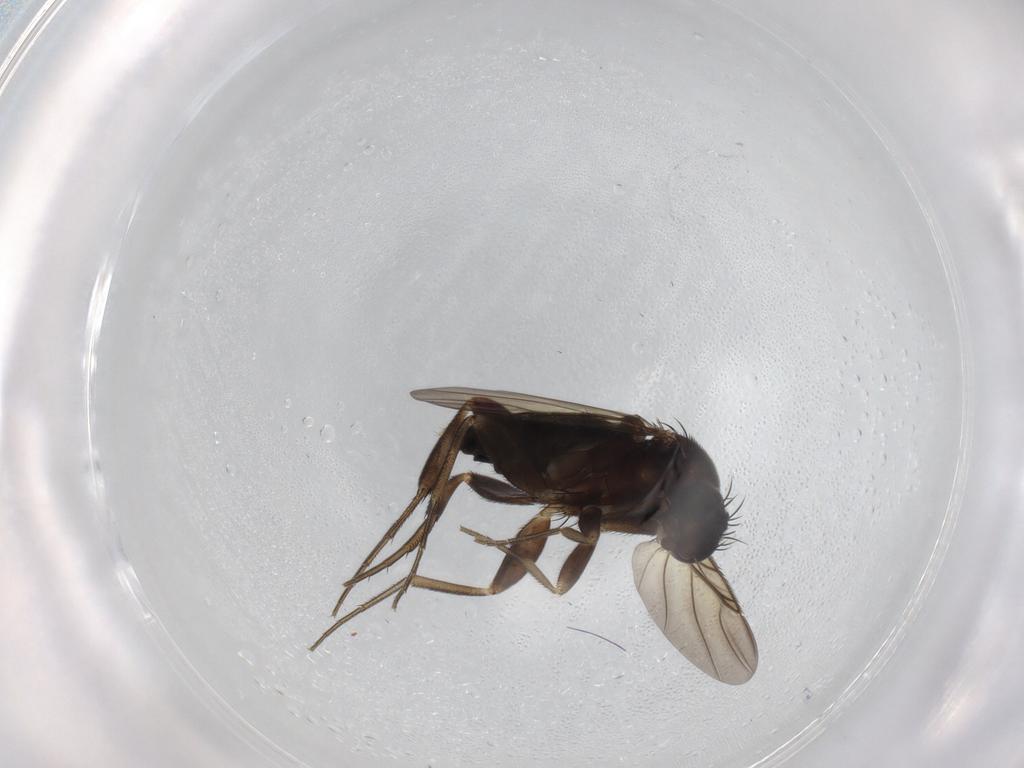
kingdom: Animalia
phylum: Arthropoda
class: Insecta
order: Diptera
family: Phoridae
